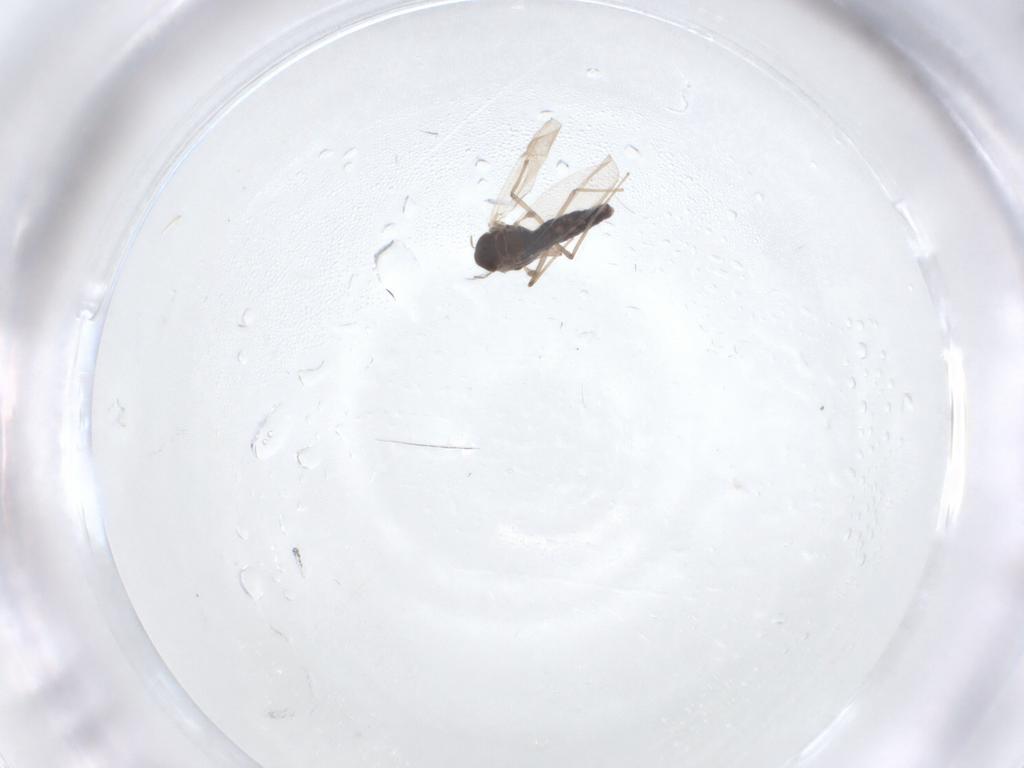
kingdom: Animalia
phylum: Arthropoda
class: Insecta
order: Diptera
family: Chironomidae
